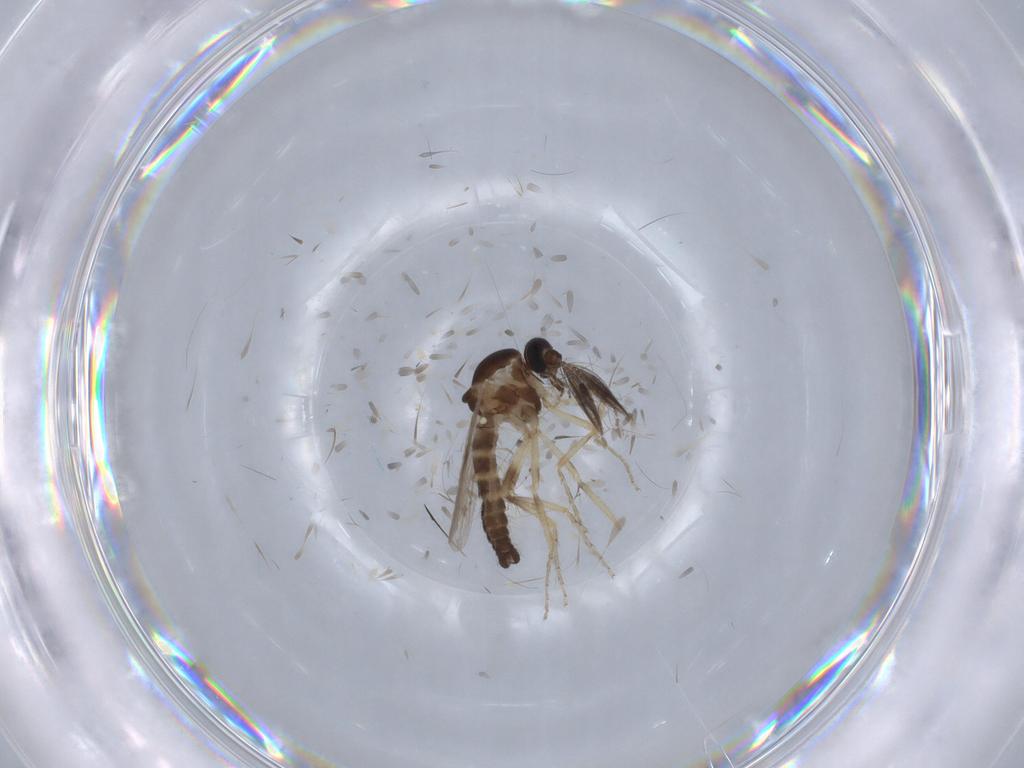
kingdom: Animalia
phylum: Arthropoda
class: Insecta
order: Diptera
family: Ceratopogonidae
